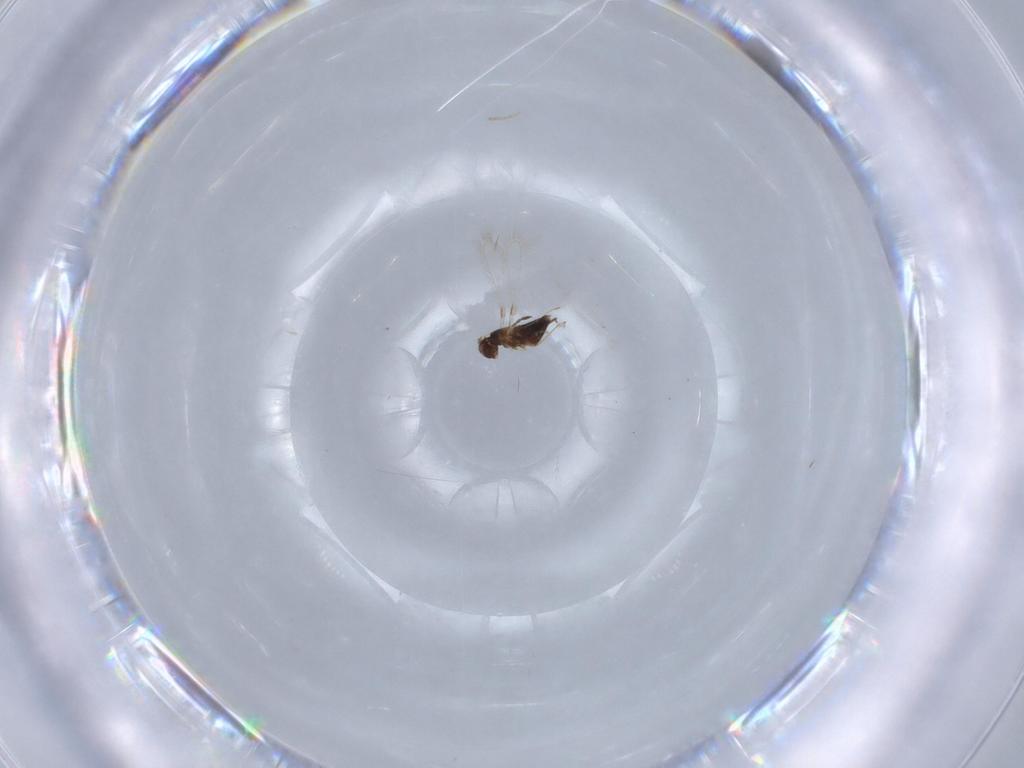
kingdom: Animalia
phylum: Arthropoda
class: Insecta
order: Hymenoptera
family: Mymaridae
